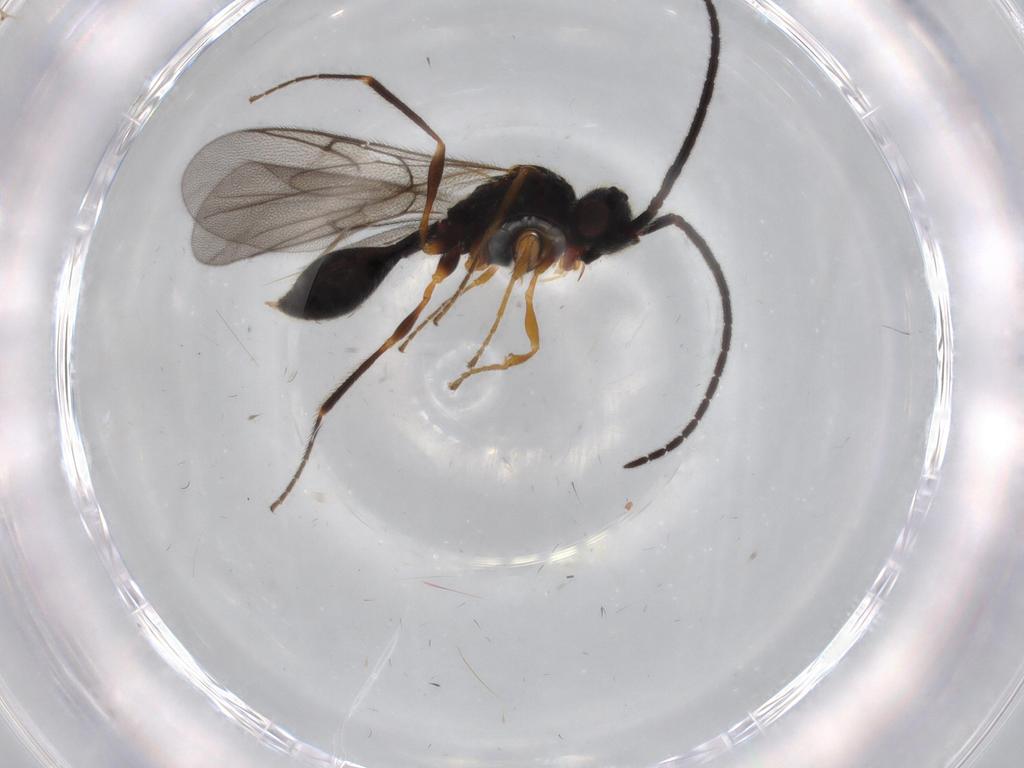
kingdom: Animalia
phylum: Arthropoda
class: Insecta
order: Hymenoptera
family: Diapriidae
